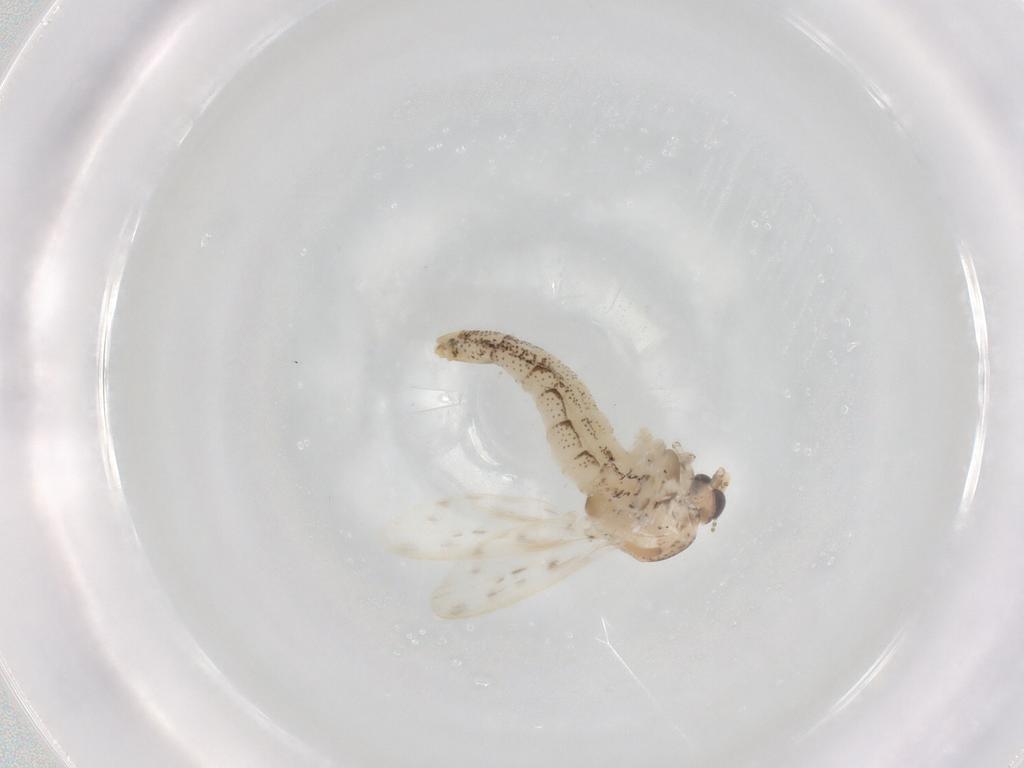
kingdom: Animalia
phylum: Arthropoda
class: Insecta
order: Diptera
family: Chaoboridae
